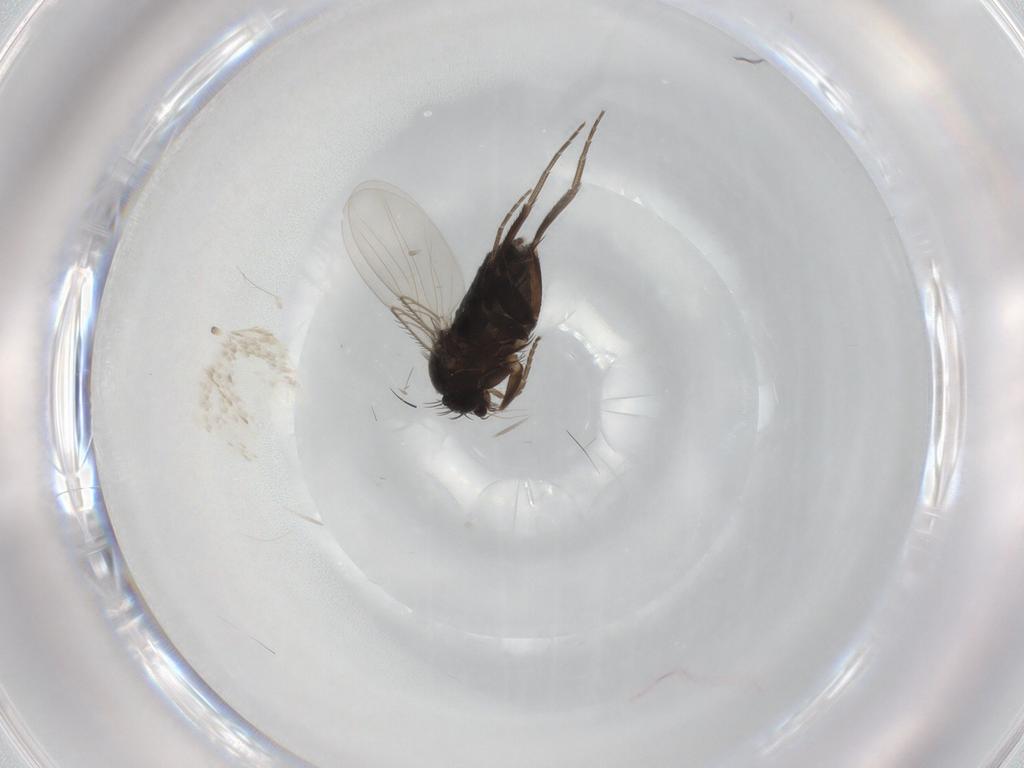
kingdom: Animalia
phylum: Arthropoda
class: Insecta
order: Diptera
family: Phoridae
